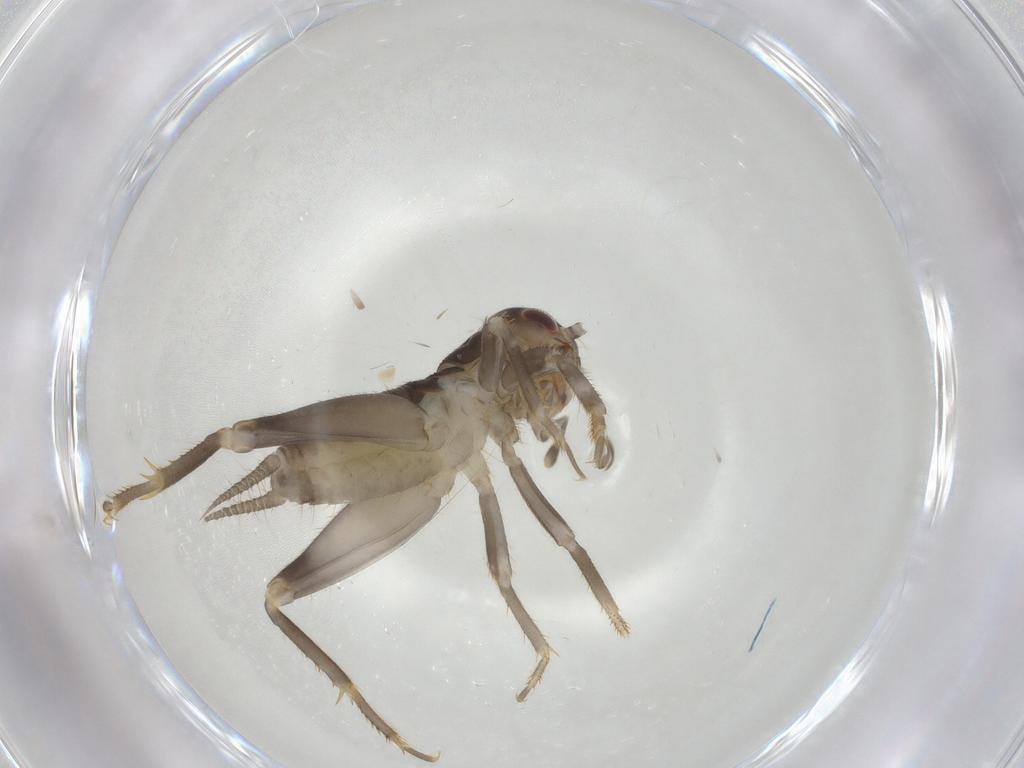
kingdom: Animalia
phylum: Arthropoda
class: Insecta
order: Orthoptera
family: Gryllidae
